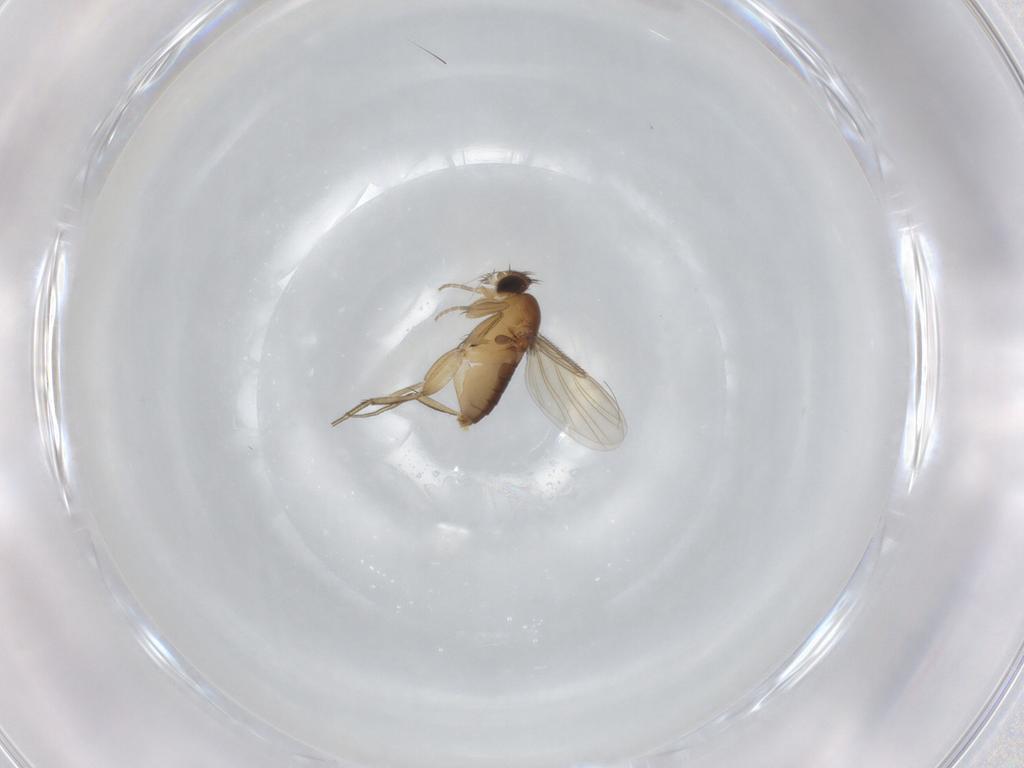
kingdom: Animalia
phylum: Arthropoda
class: Insecta
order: Diptera
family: Phoridae
